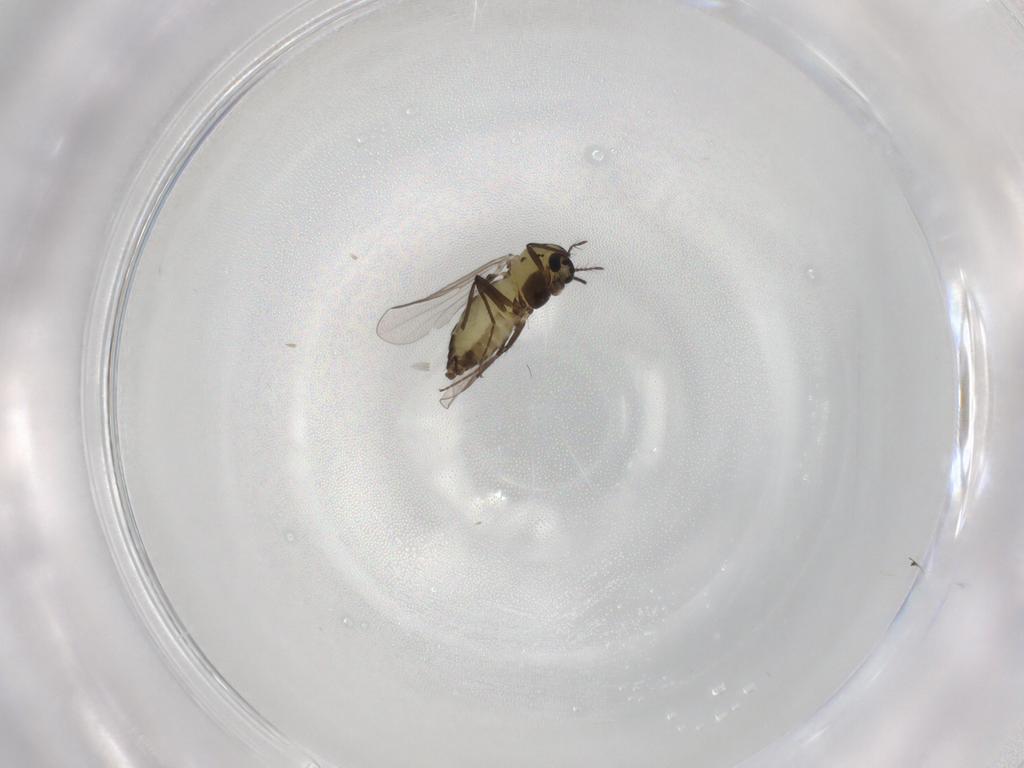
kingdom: Animalia
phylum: Arthropoda
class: Insecta
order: Diptera
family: Chironomidae
